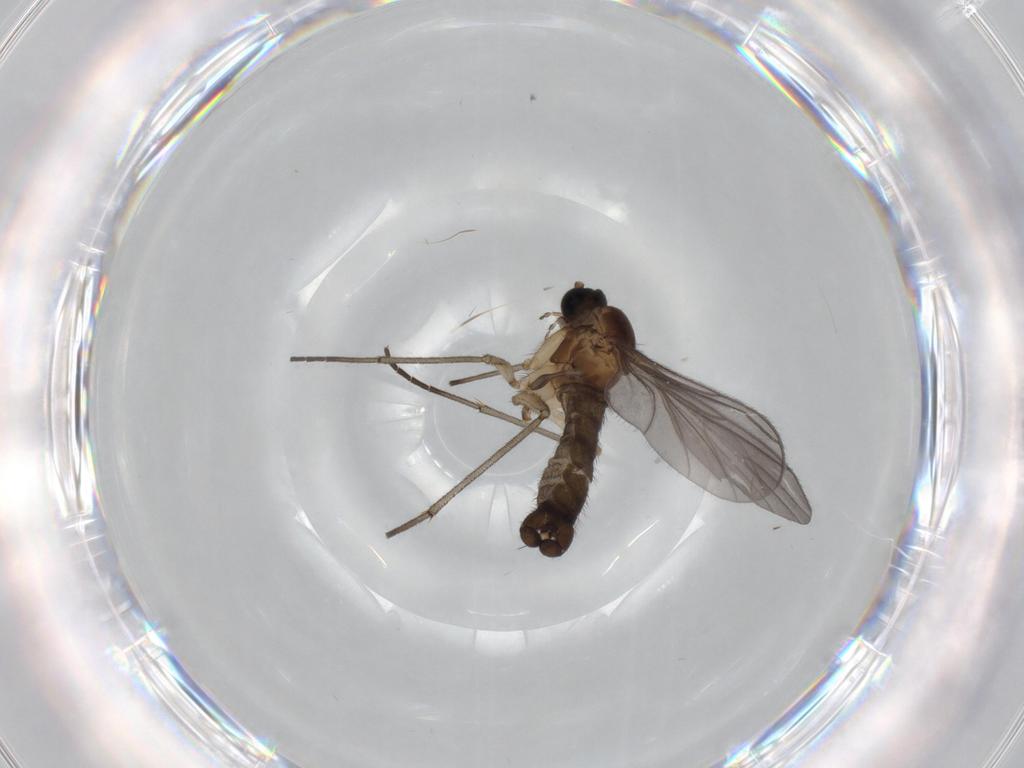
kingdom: Animalia
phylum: Arthropoda
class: Insecta
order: Diptera
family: Sciaridae
